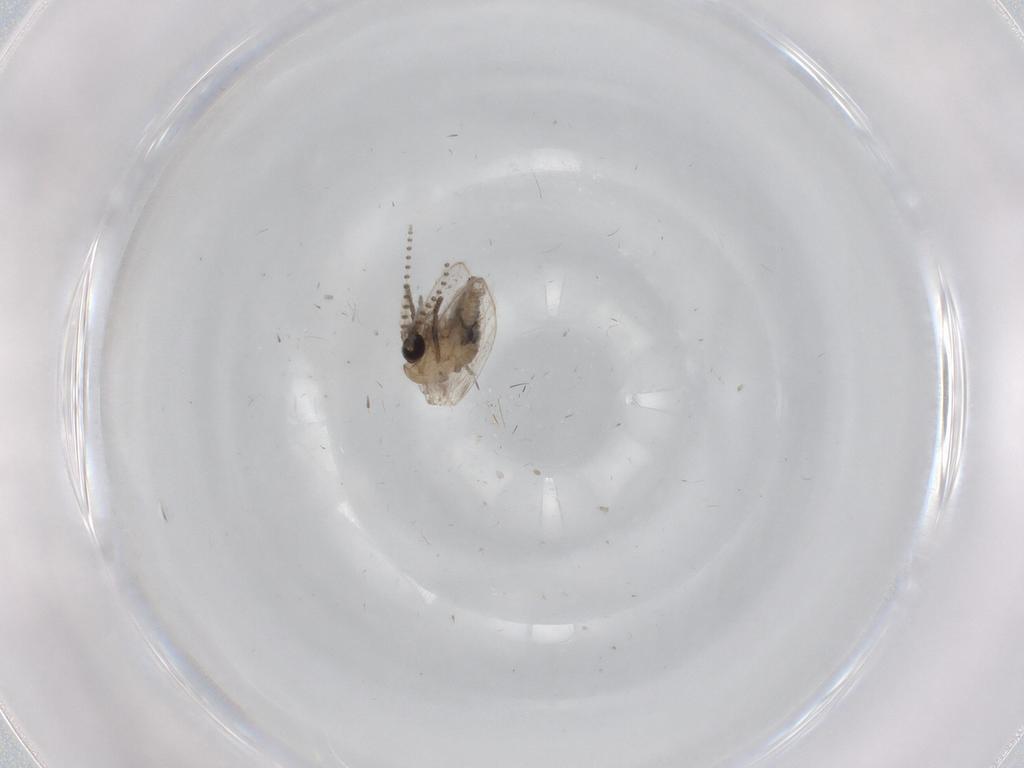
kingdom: Animalia
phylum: Arthropoda
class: Insecta
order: Diptera
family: Psychodidae
